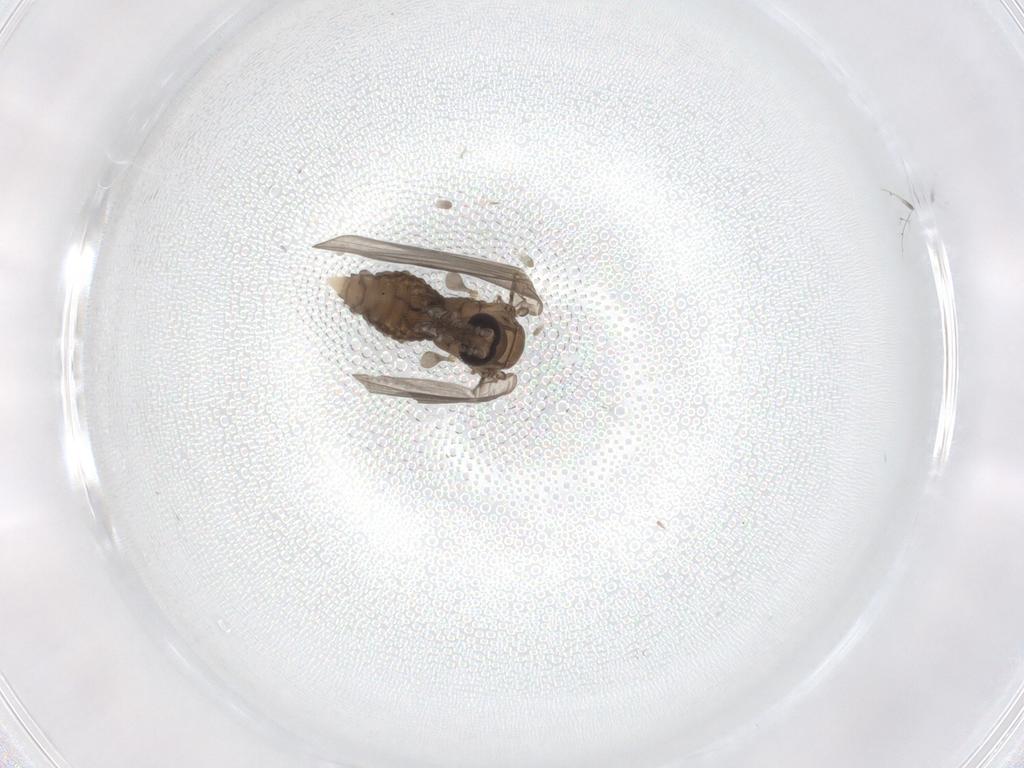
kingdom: Animalia
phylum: Arthropoda
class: Insecta
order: Diptera
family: Psychodidae
